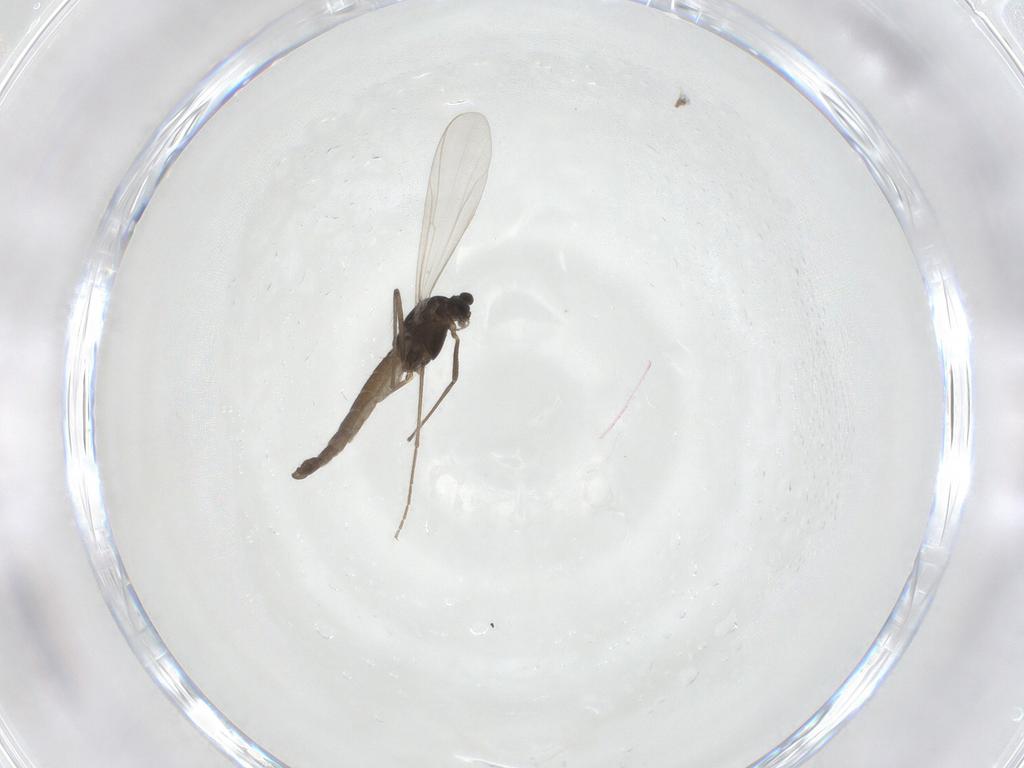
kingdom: Animalia
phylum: Arthropoda
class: Insecta
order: Diptera
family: Chironomidae
